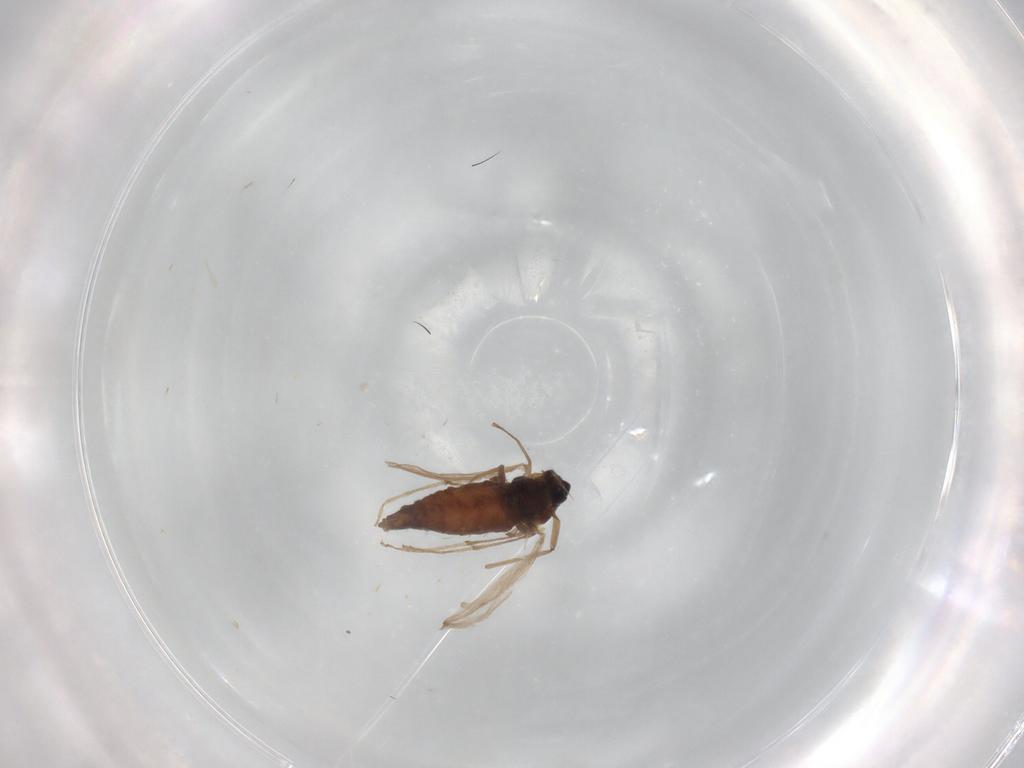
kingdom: Animalia
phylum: Arthropoda
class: Insecta
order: Diptera
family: Chironomidae
